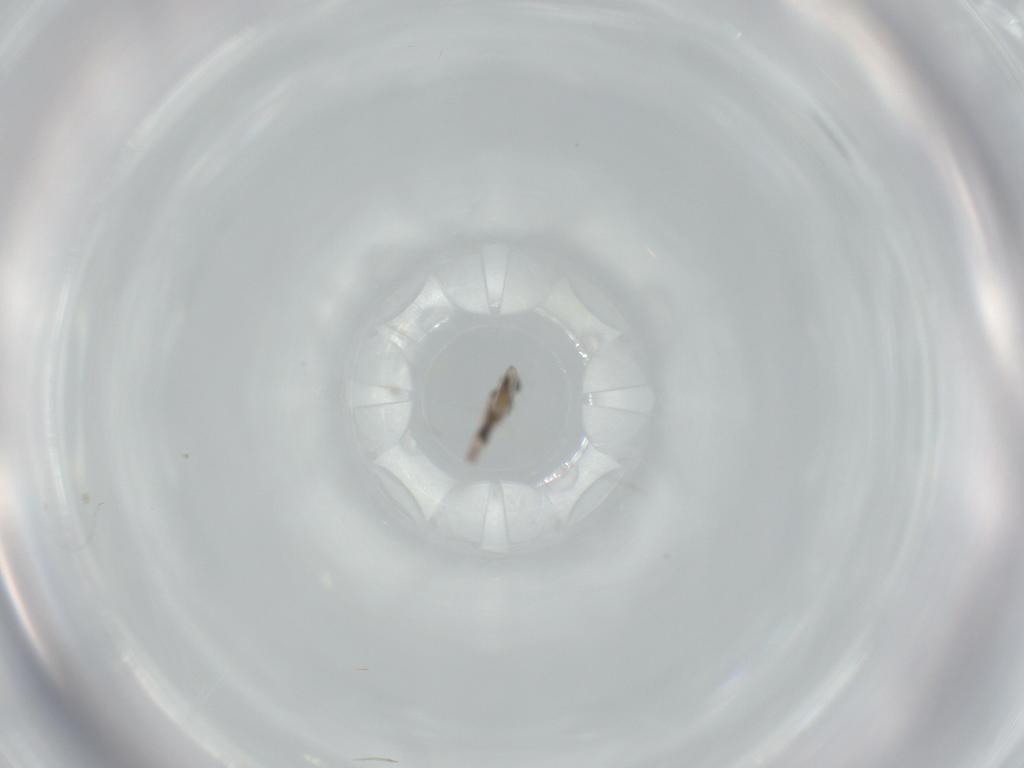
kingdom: Animalia
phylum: Arthropoda
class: Insecta
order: Diptera
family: Cecidomyiidae
